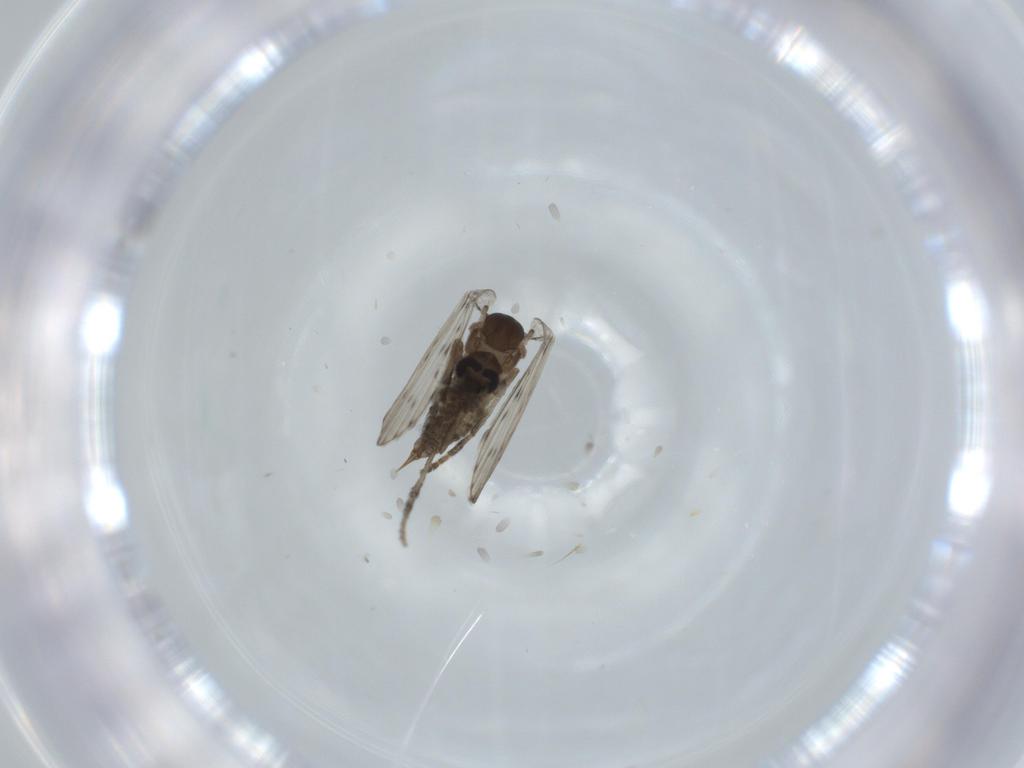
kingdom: Animalia
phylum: Arthropoda
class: Insecta
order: Diptera
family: Psychodidae
